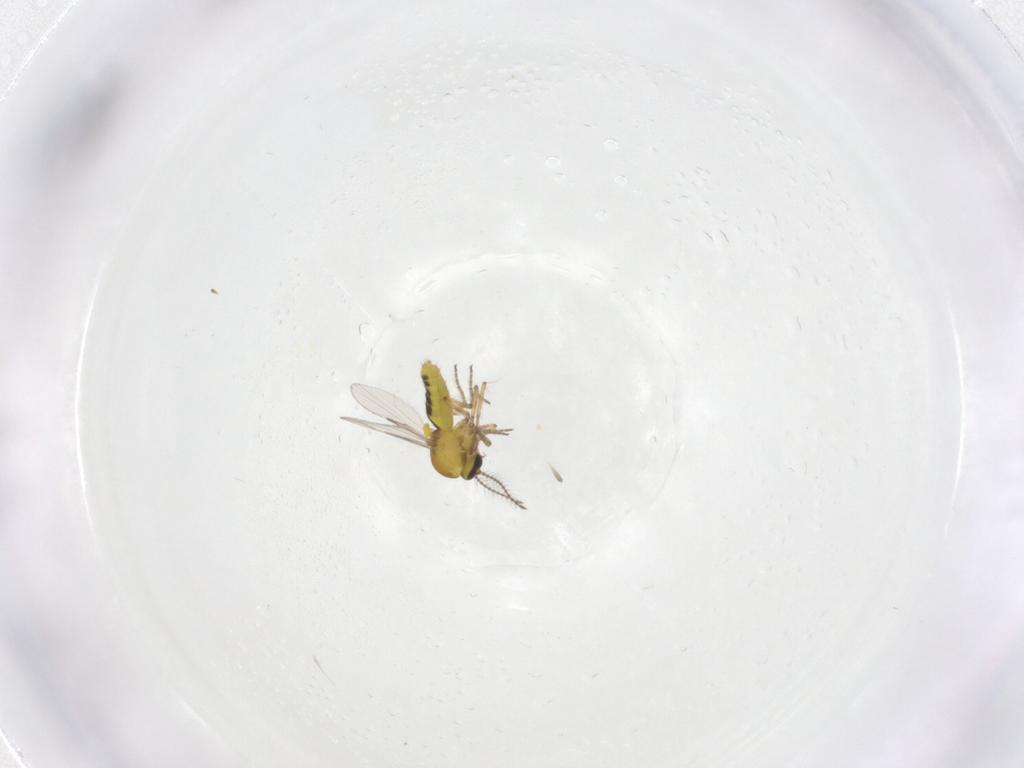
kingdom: Animalia
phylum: Arthropoda
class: Insecta
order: Diptera
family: Ceratopogonidae
